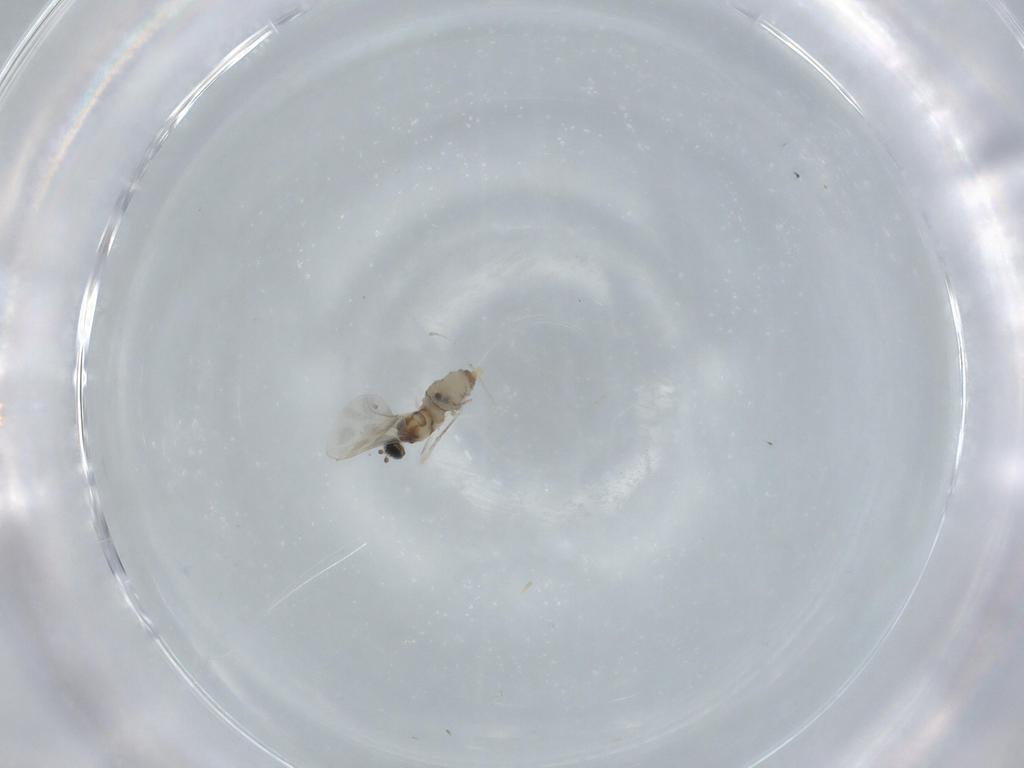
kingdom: Animalia
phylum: Arthropoda
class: Insecta
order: Diptera
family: Cecidomyiidae
